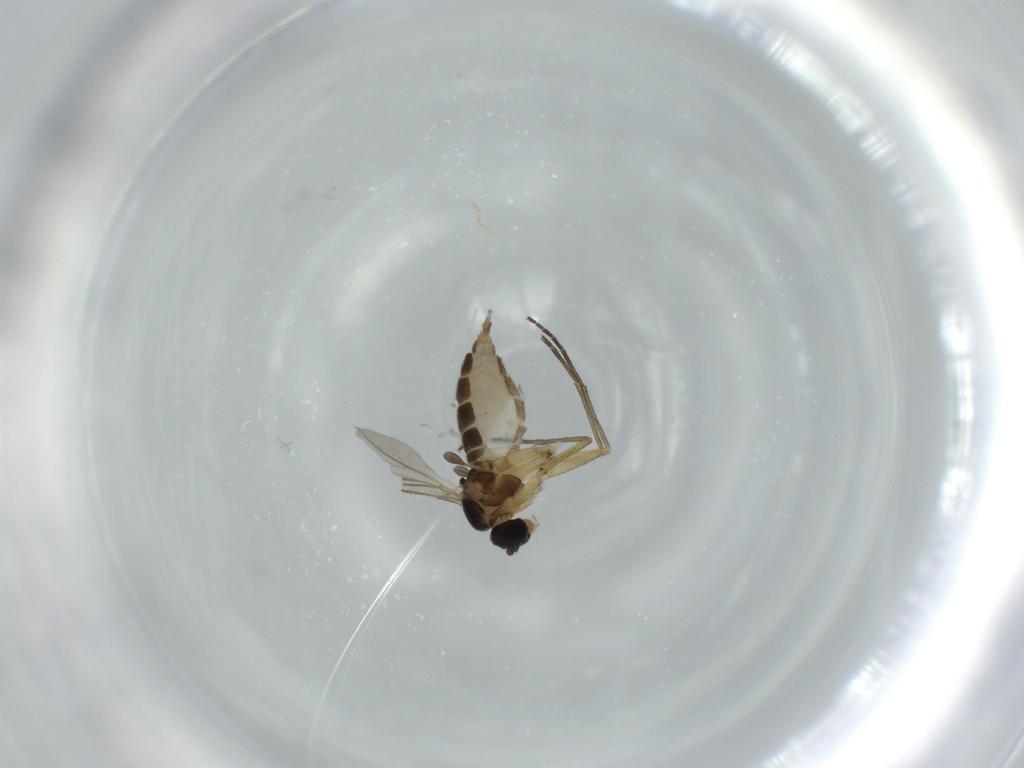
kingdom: Animalia
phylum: Arthropoda
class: Insecta
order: Diptera
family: Sciaridae
